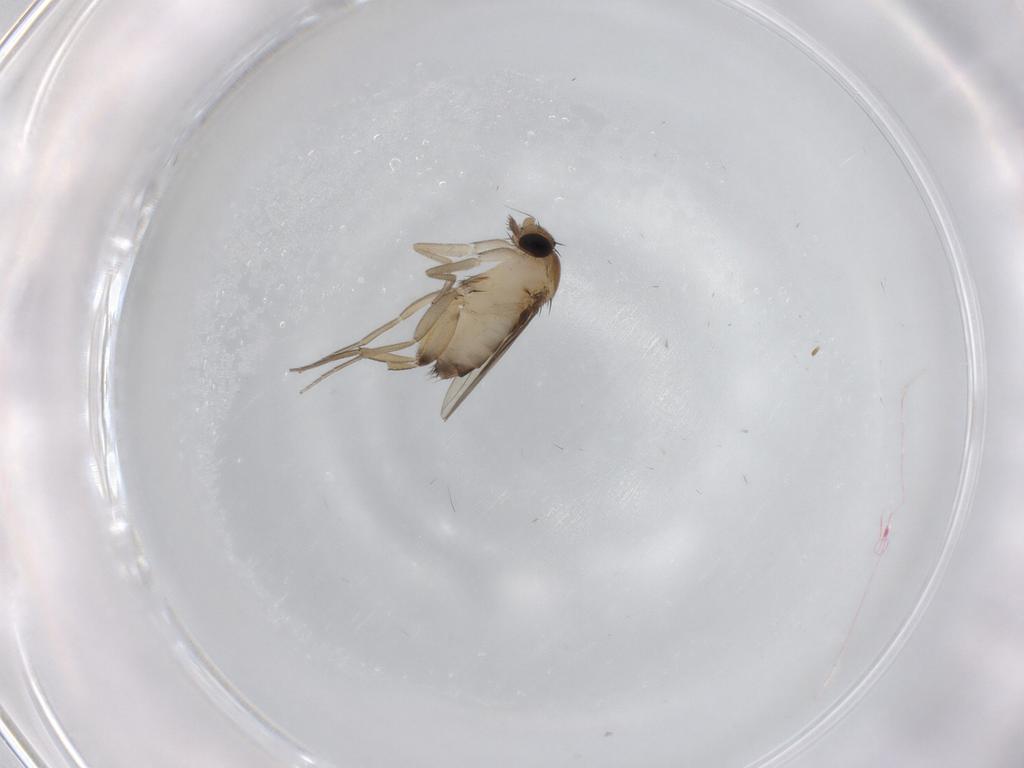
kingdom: Animalia
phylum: Arthropoda
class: Insecta
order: Diptera
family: Phoridae
